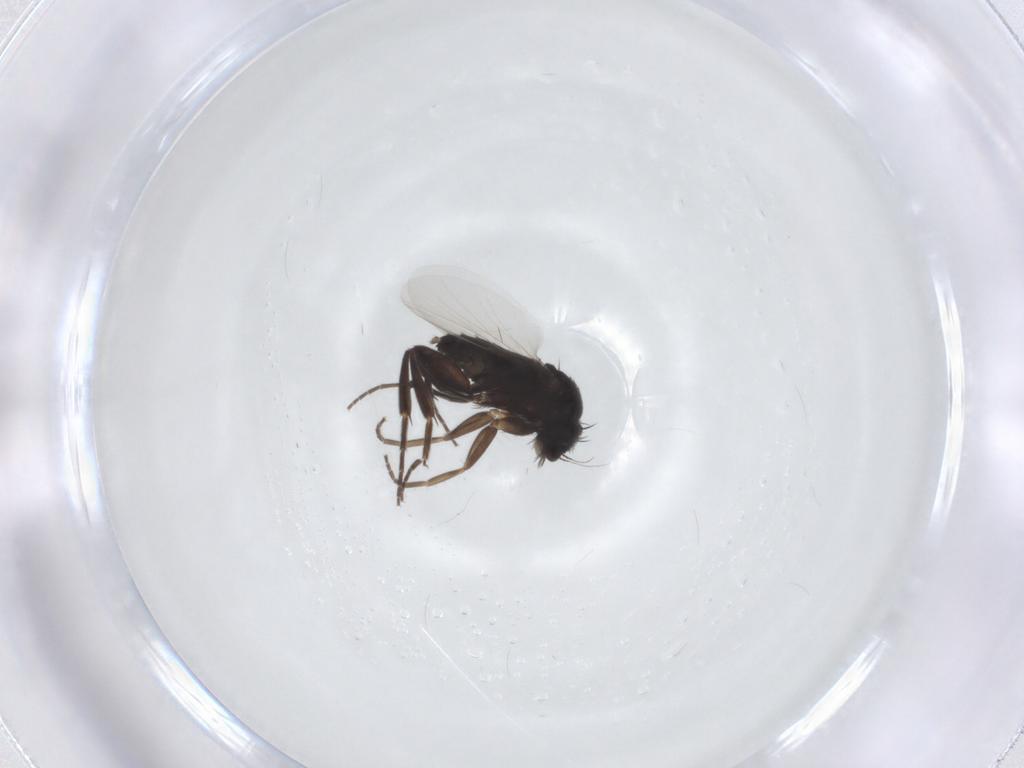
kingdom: Animalia
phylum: Arthropoda
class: Insecta
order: Diptera
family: Phoridae
